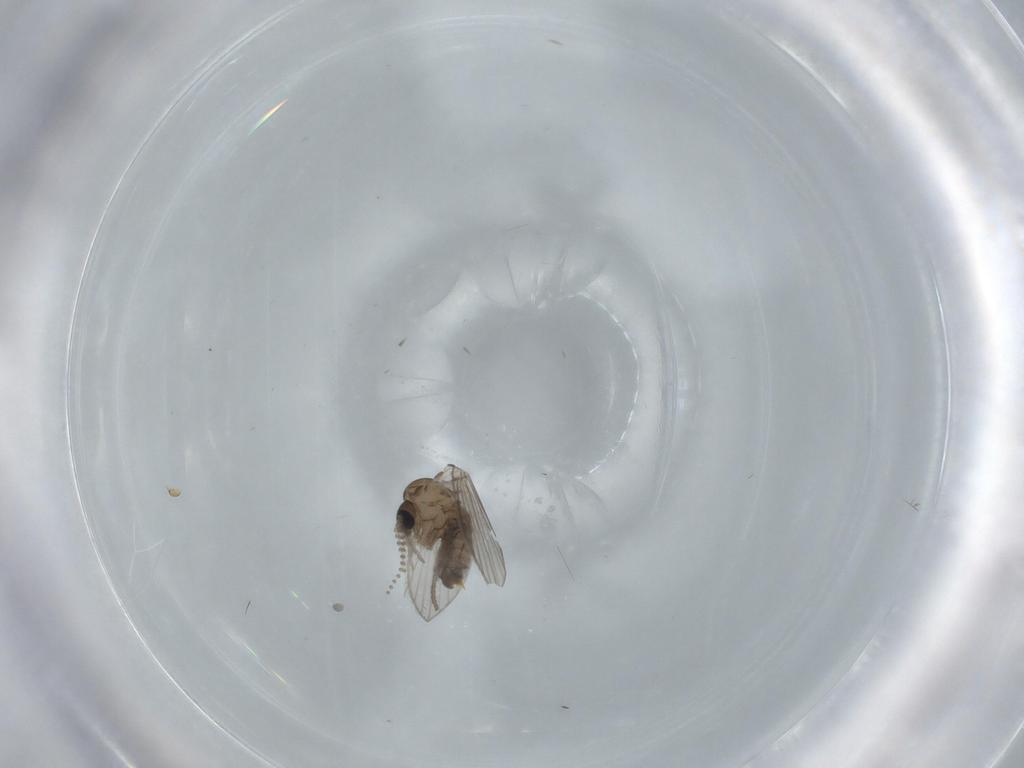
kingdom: Animalia
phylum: Arthropoda
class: Insecta
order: Diptera
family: Psychodidae
